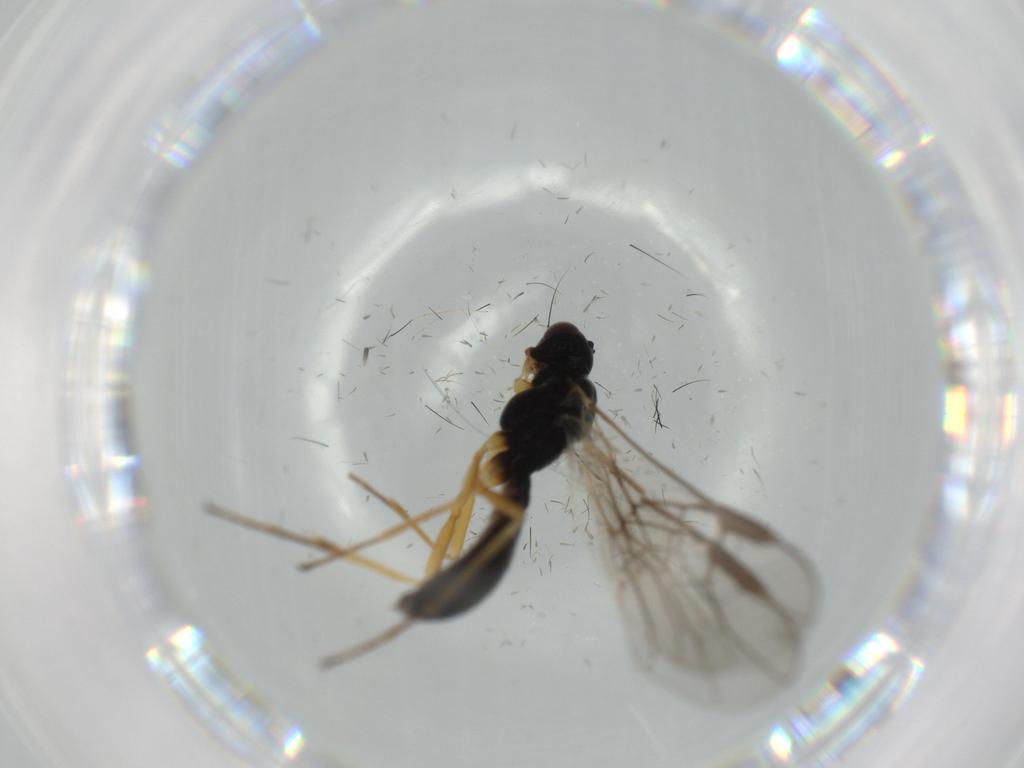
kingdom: Animalia
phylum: Arthropoda
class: Insecta
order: Hymenoptera
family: Braconidae
